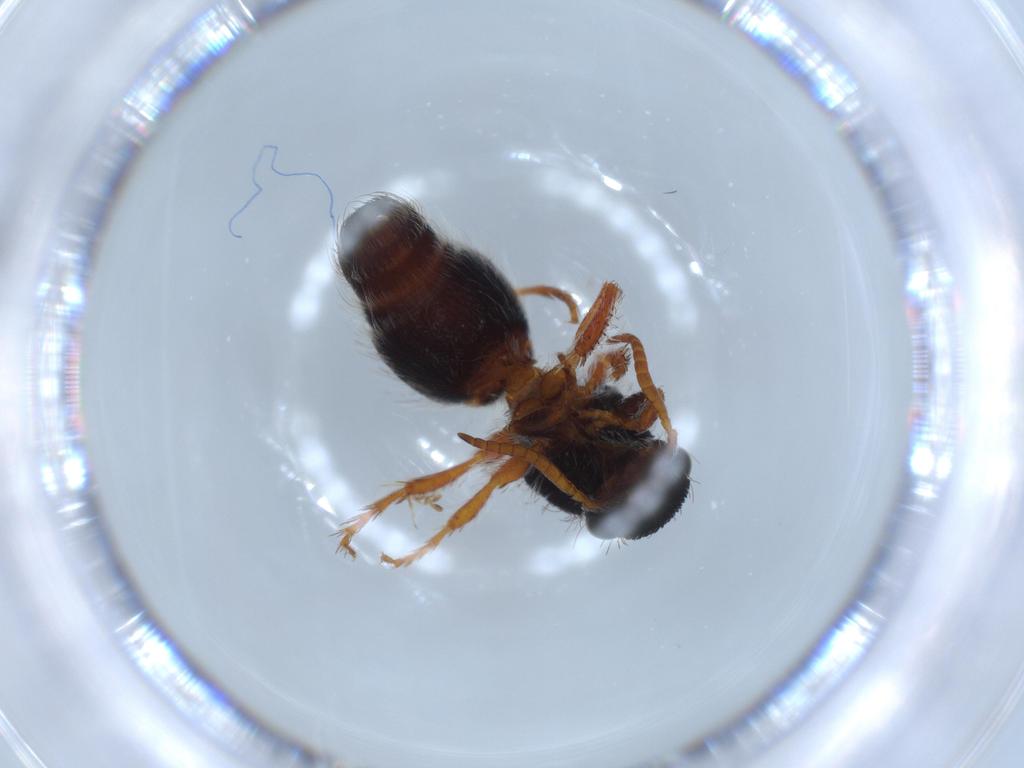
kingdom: Animalia
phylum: Arthropoda
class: Insecta
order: Hymenoptera
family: Scelionidae
